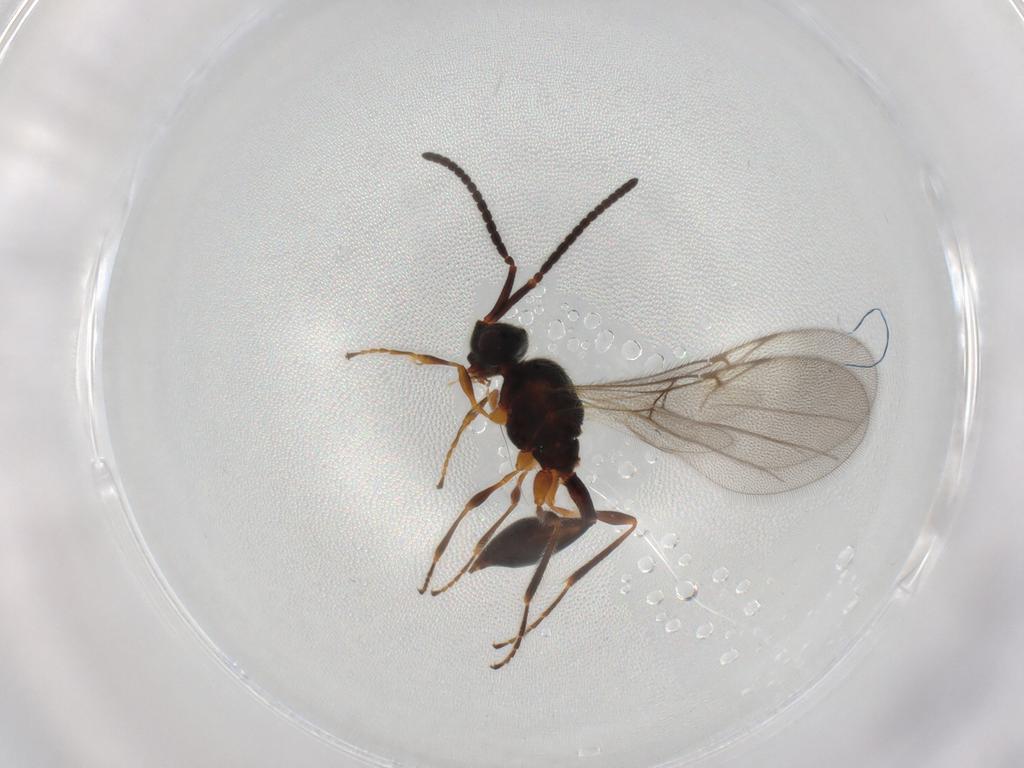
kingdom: Animalia
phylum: Arthropoda
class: Insecta
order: Hymenoptera
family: Diapriidae
